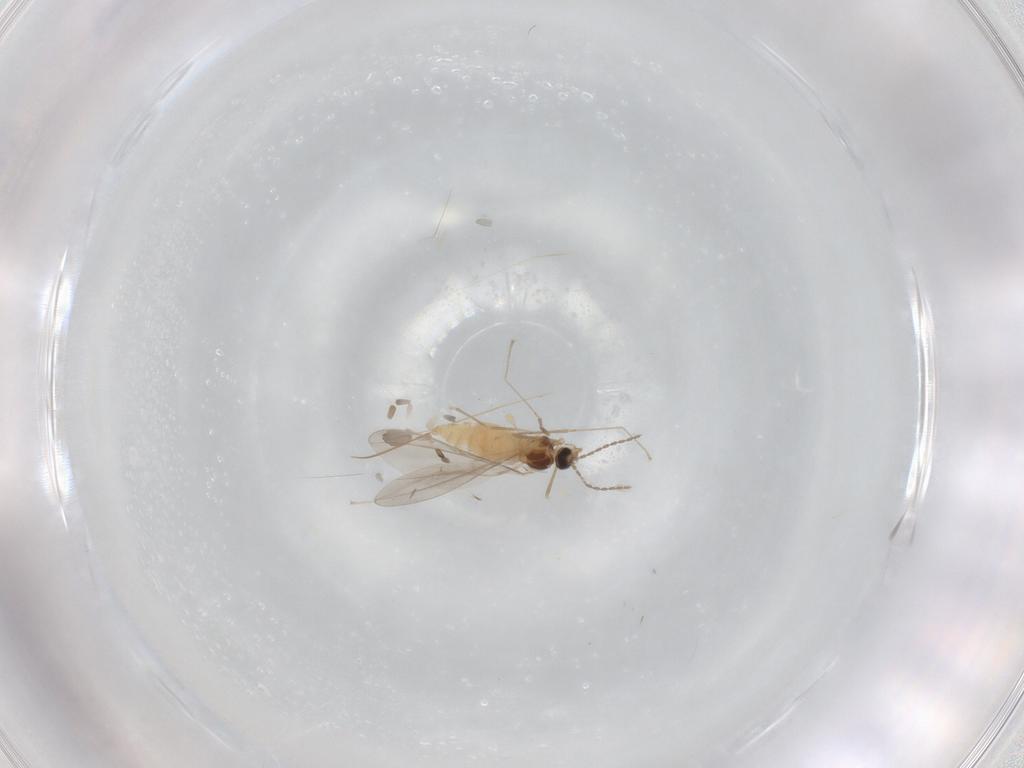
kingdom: Animalia
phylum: Arthropoda
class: Insecta
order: Diptera
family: Cecidomyiidae
